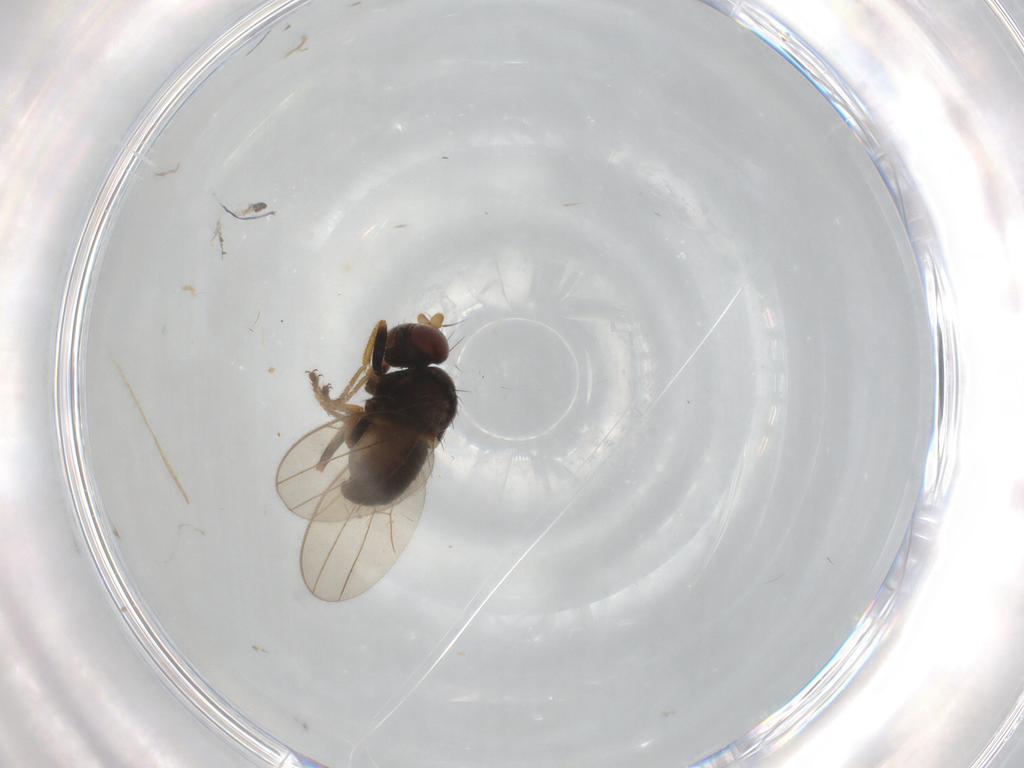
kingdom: Animalia
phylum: Arthropoda
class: Insecta
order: Diptera
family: Ephydridae
